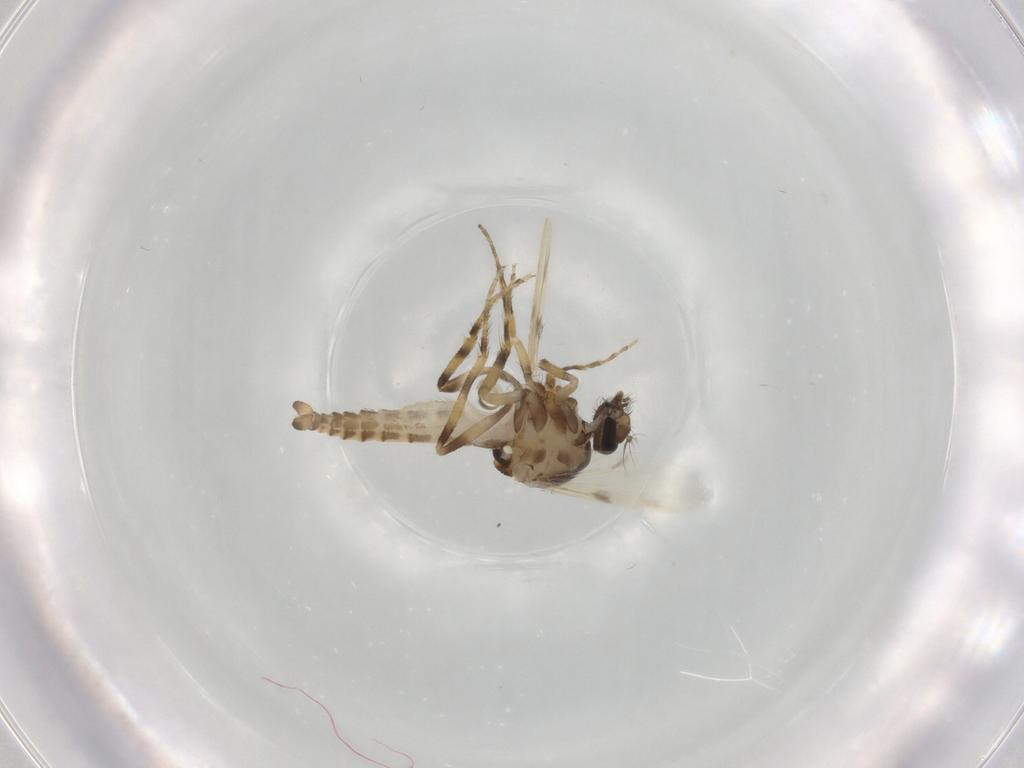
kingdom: Animalia
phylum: Arthropoda
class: Insecta
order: Diptera
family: Ceratopogonidae
